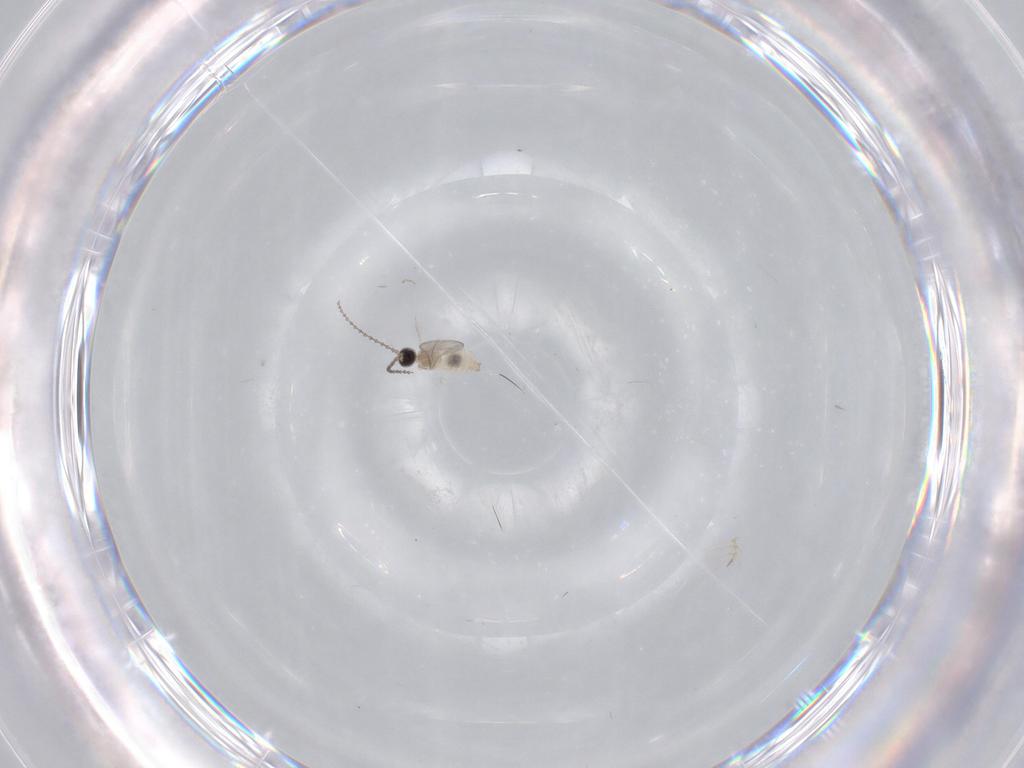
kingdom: Animalia
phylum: Arthropoda
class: Insecta
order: Diptera
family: Cecidomyiidae
